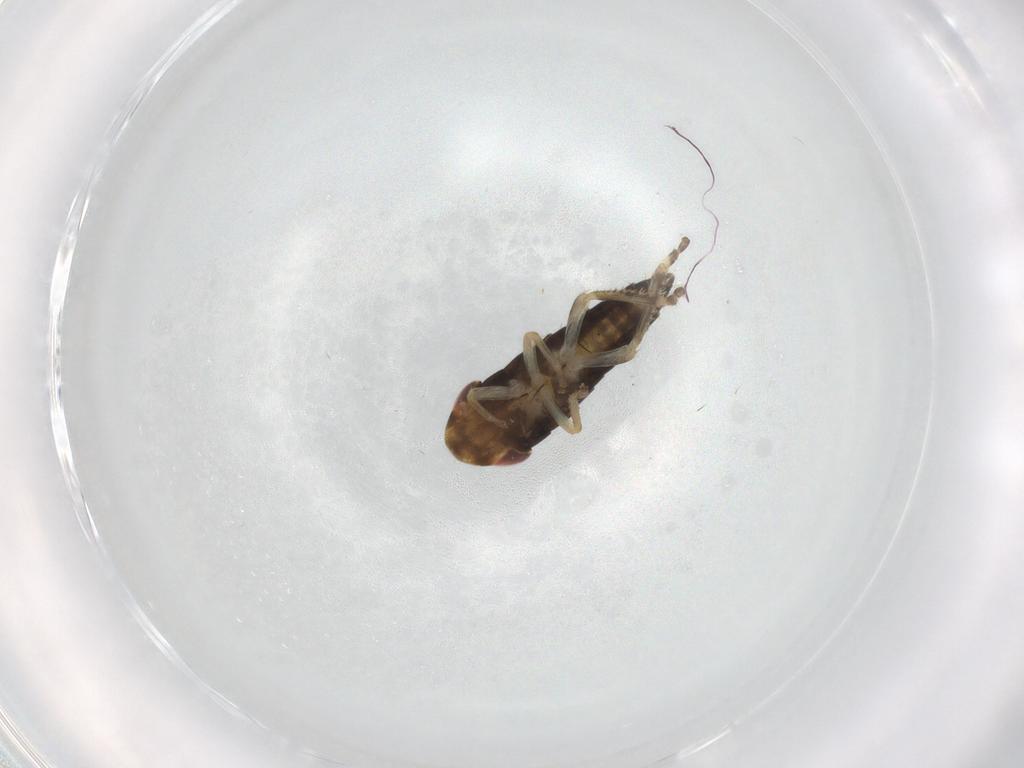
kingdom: Animalia
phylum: Arthropoda
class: Insecta
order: Hemiptera
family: Cicadellidae
